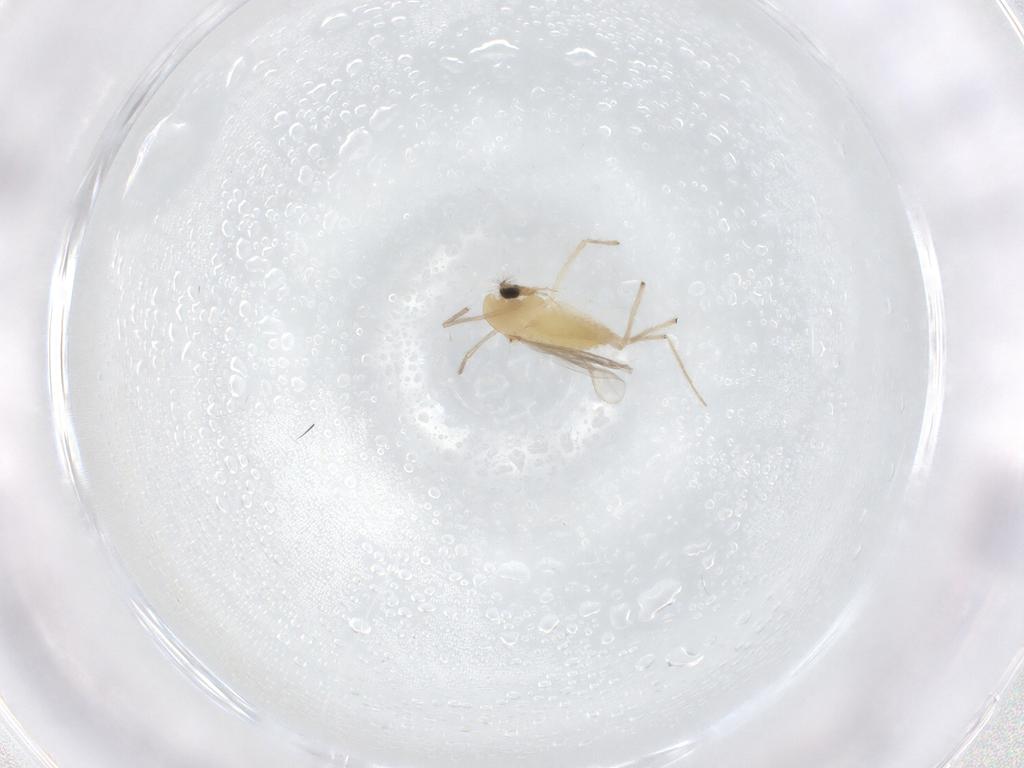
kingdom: Animalia
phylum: Arthropoda
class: Insecta
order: Diptera
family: Chironomidae
